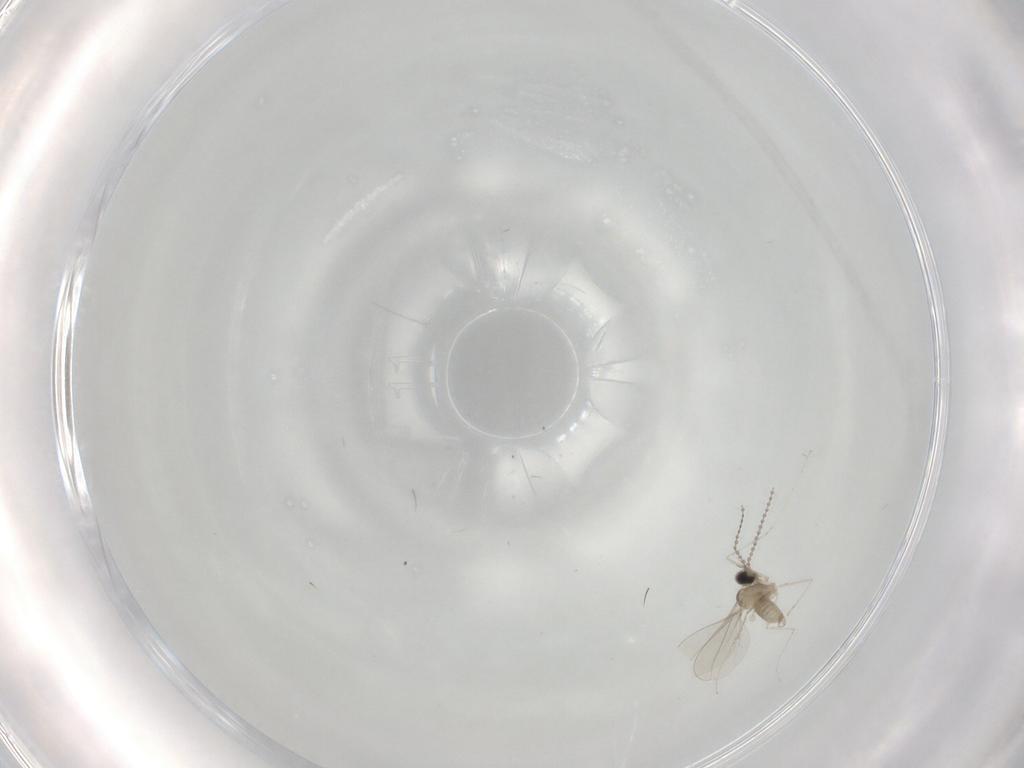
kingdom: Animalia
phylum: Arthropoda
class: Insecta
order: Diptera
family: Cecidomyiidae
